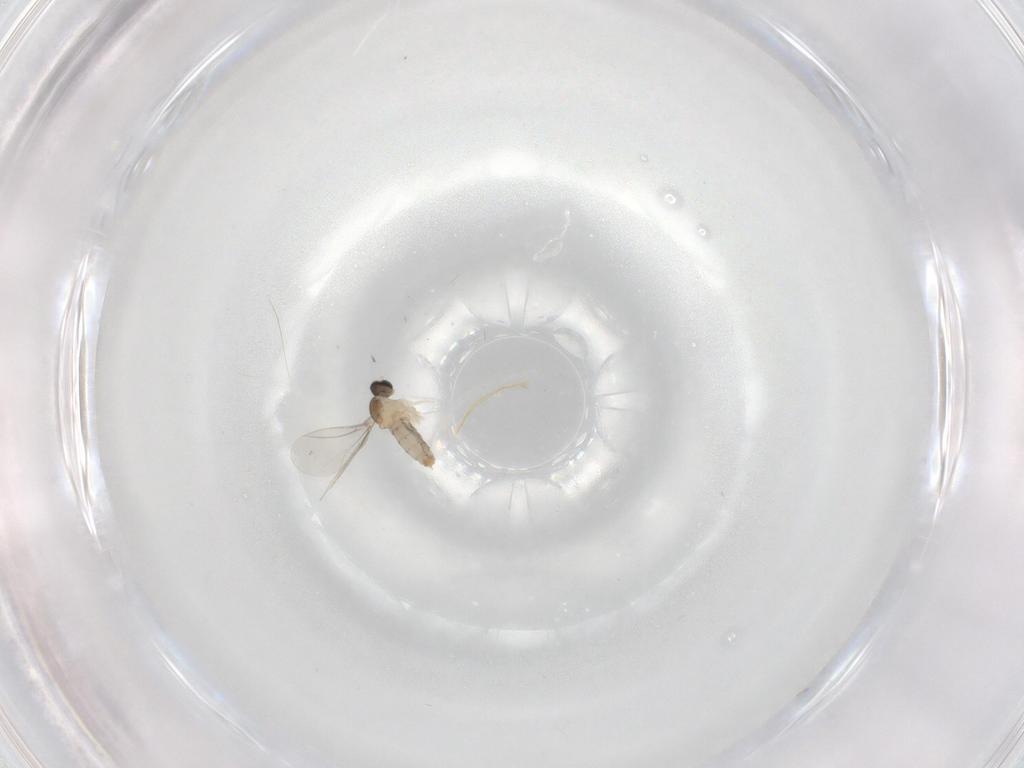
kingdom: Animalia
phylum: Arthropoda
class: Insecta
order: Diptera
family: Cecidomyiidae
